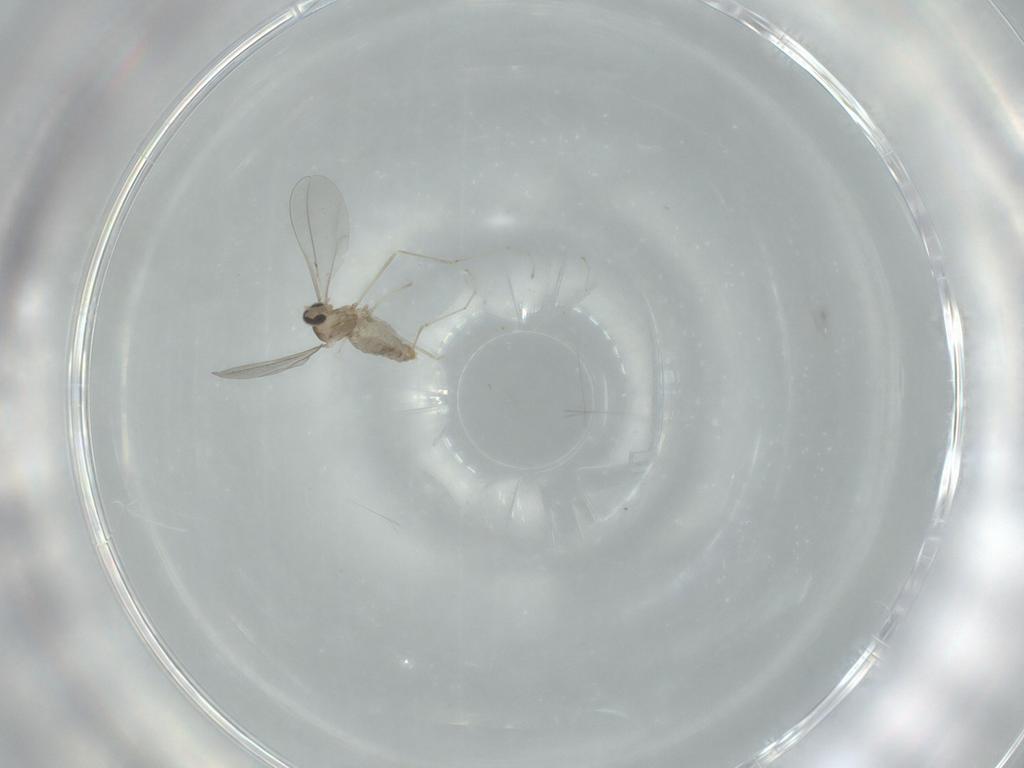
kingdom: Animalia
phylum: Arthropoda
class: Insecta
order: Diptera
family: Cecidomyiidae
